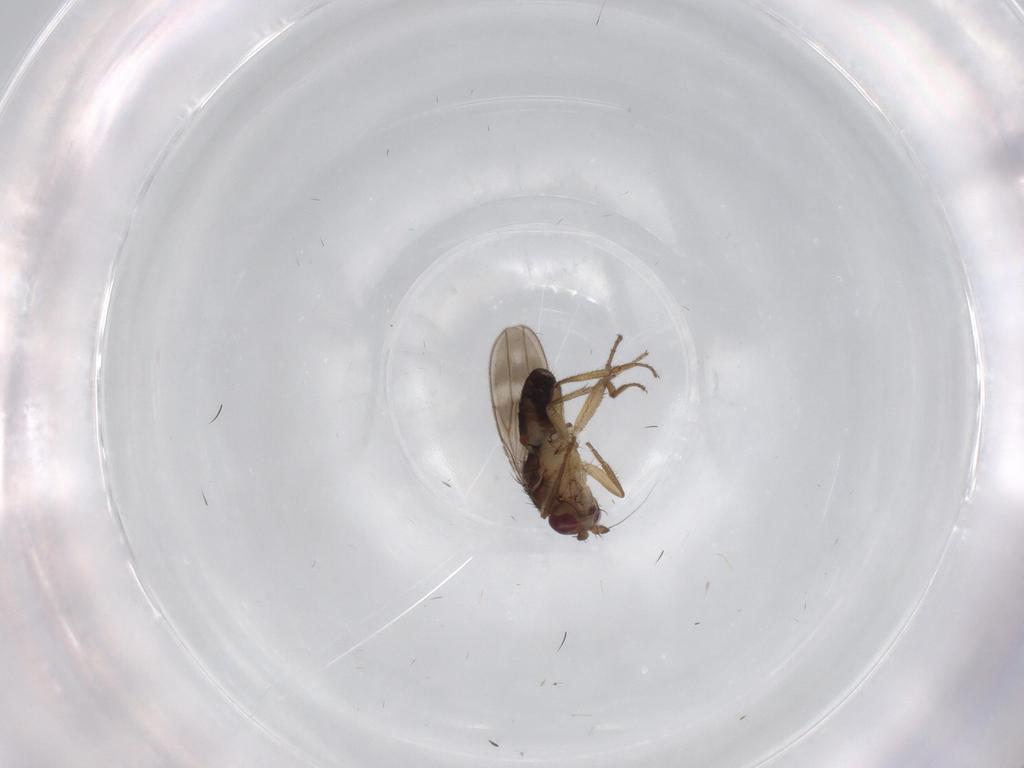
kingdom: Animalia
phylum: Arthropoda
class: Insecta
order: Diptera
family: Sphaeroceridae
